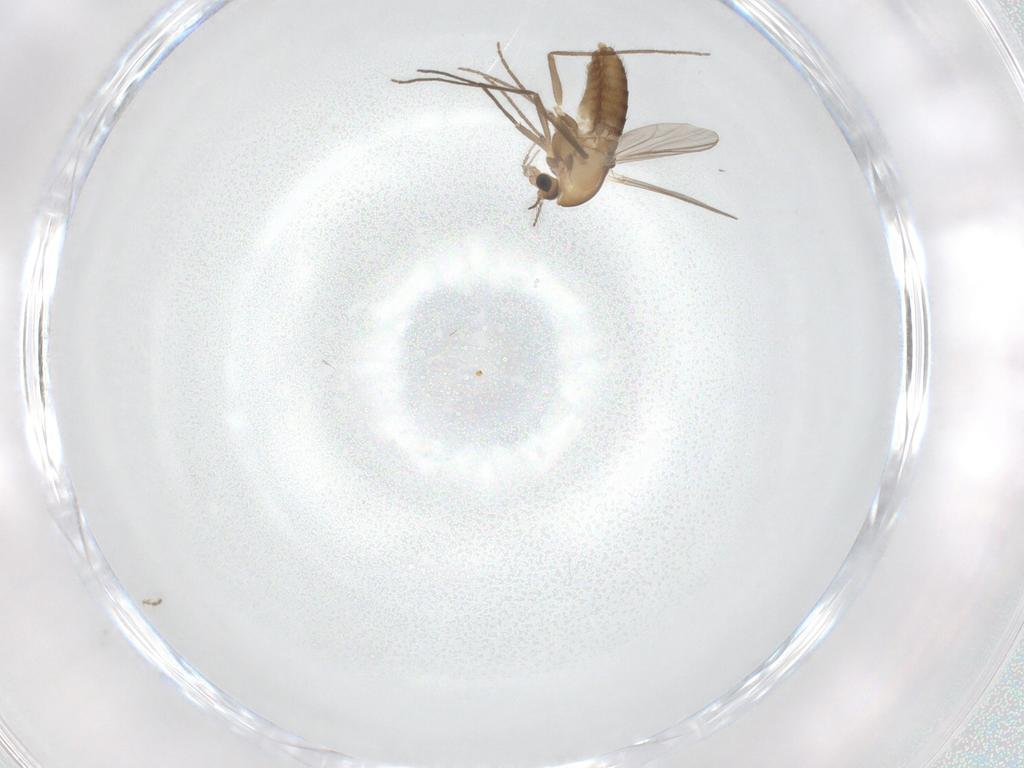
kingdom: Animalia
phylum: Arthropoda
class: Insecta
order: Diptera
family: Chironomidae
